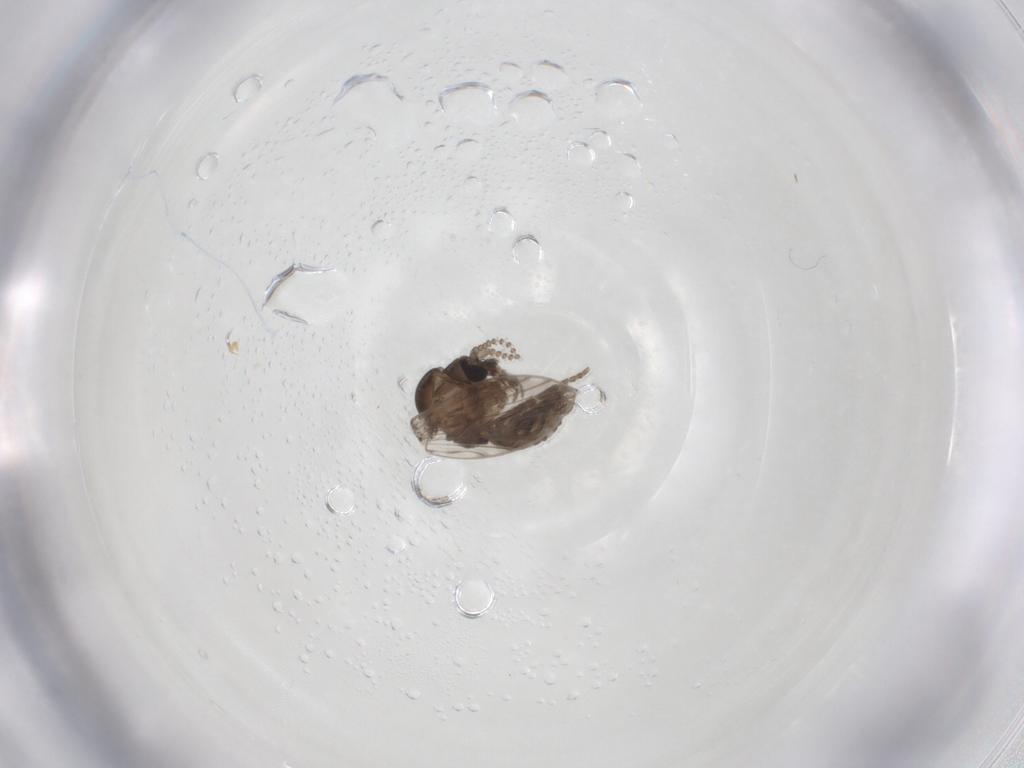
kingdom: Animalia
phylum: Arthropoda
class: Insecta
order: Diptera
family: Psychodidae
